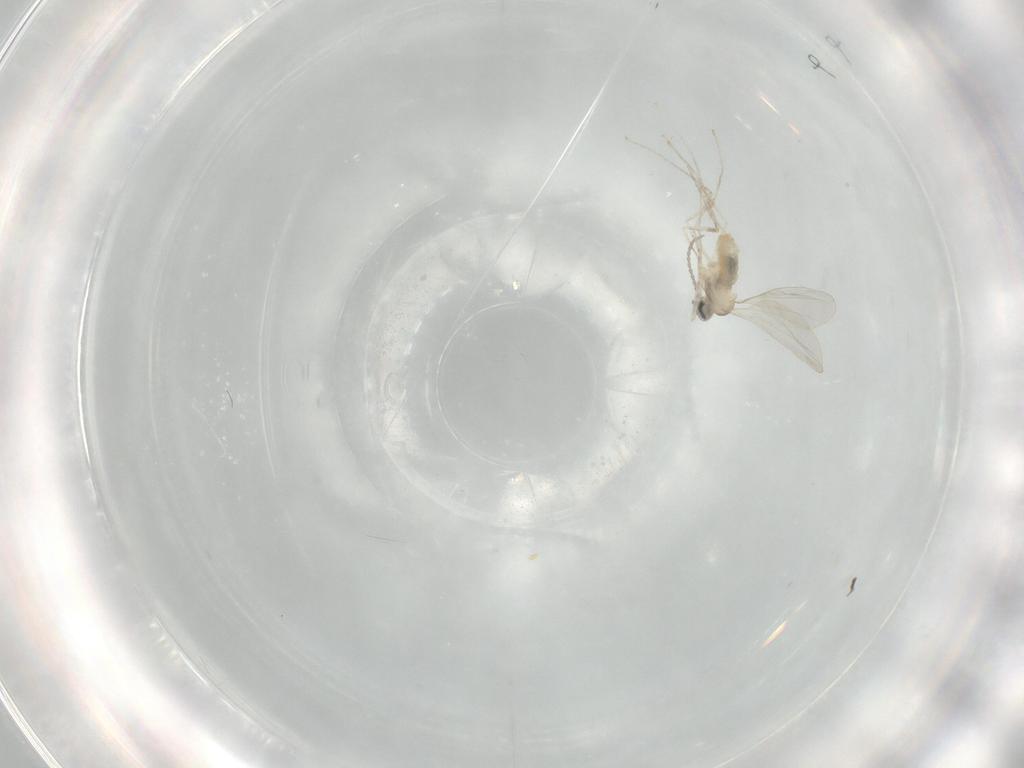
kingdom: Animalia
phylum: Arthropoda
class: Insecta
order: Diptera
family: Cecidomyiidae
